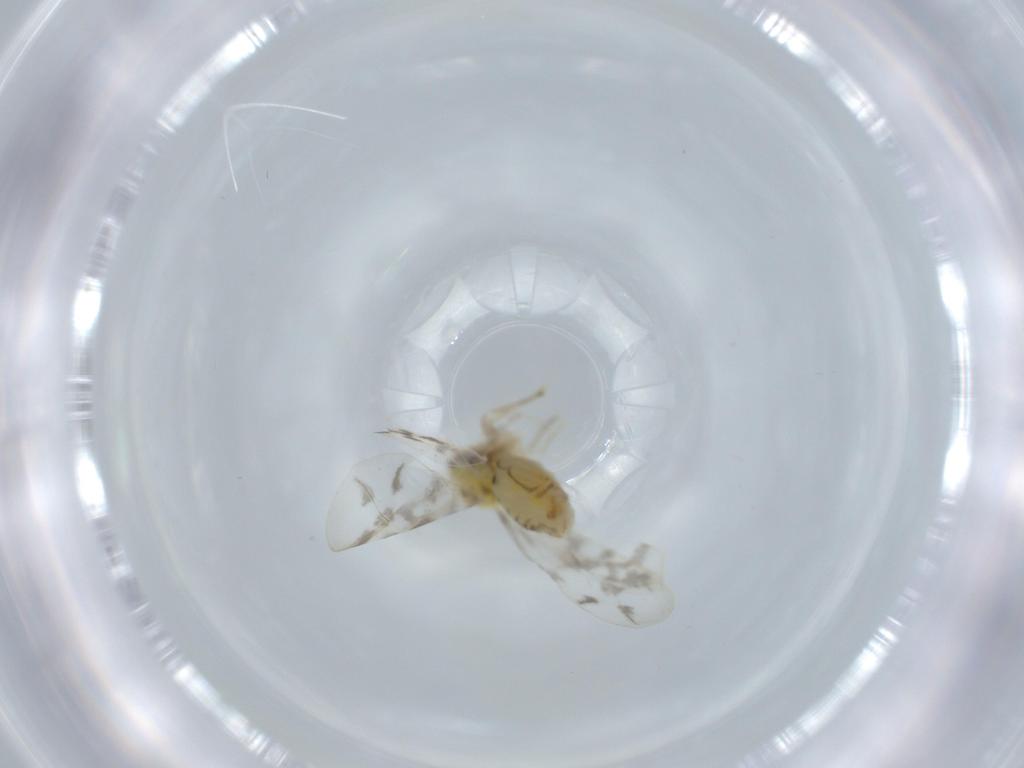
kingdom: Animalia
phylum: Arthropoda
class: Insecta
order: Hemiptera
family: Aleyrodidae
